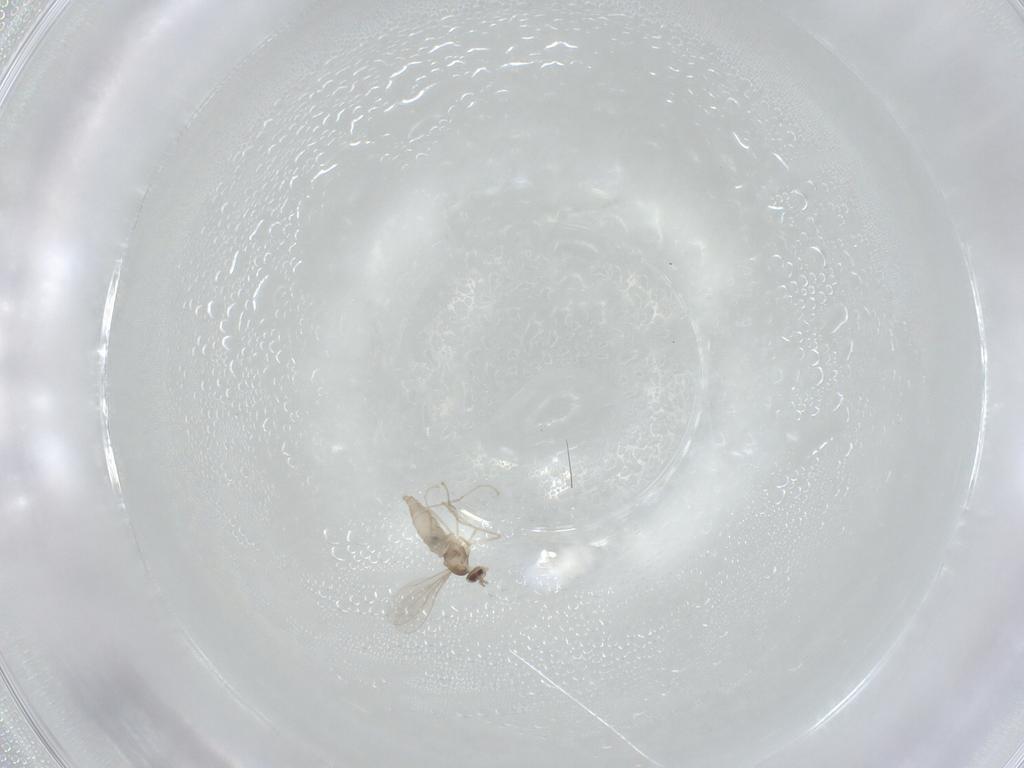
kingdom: Animalia
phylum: Arthropoda
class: Insecta
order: Diptera
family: Cecidomyiidae
